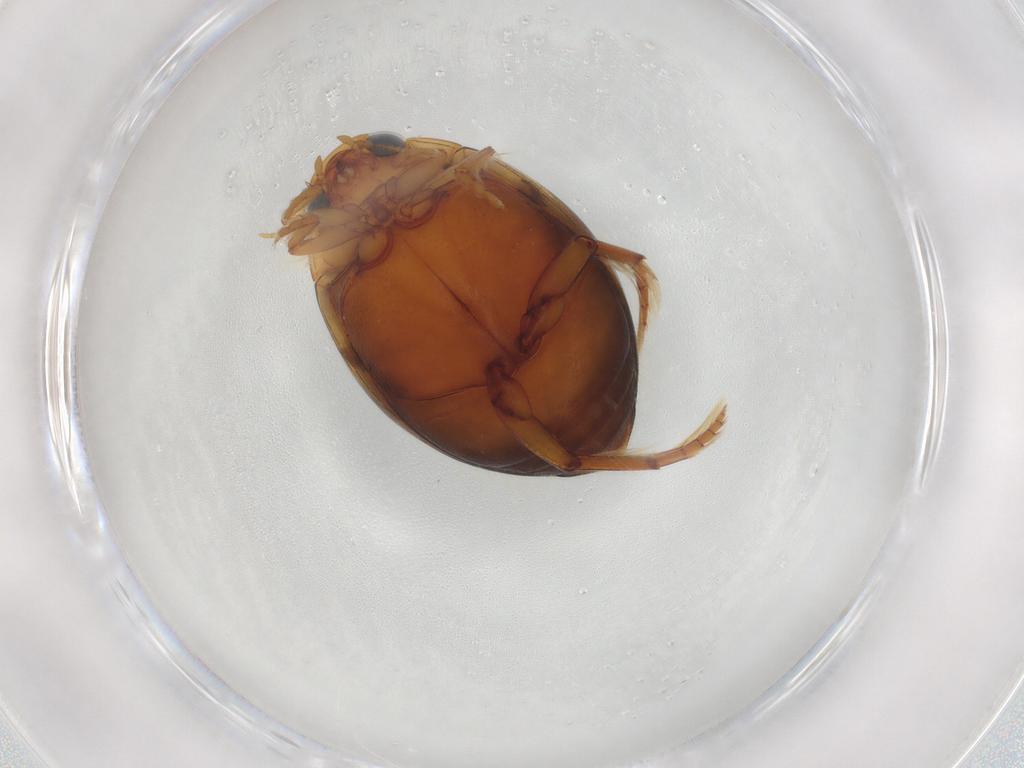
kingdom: Animalia
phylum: Arthropoda
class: Insecta
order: Coleoptera
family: Dytiscidae
